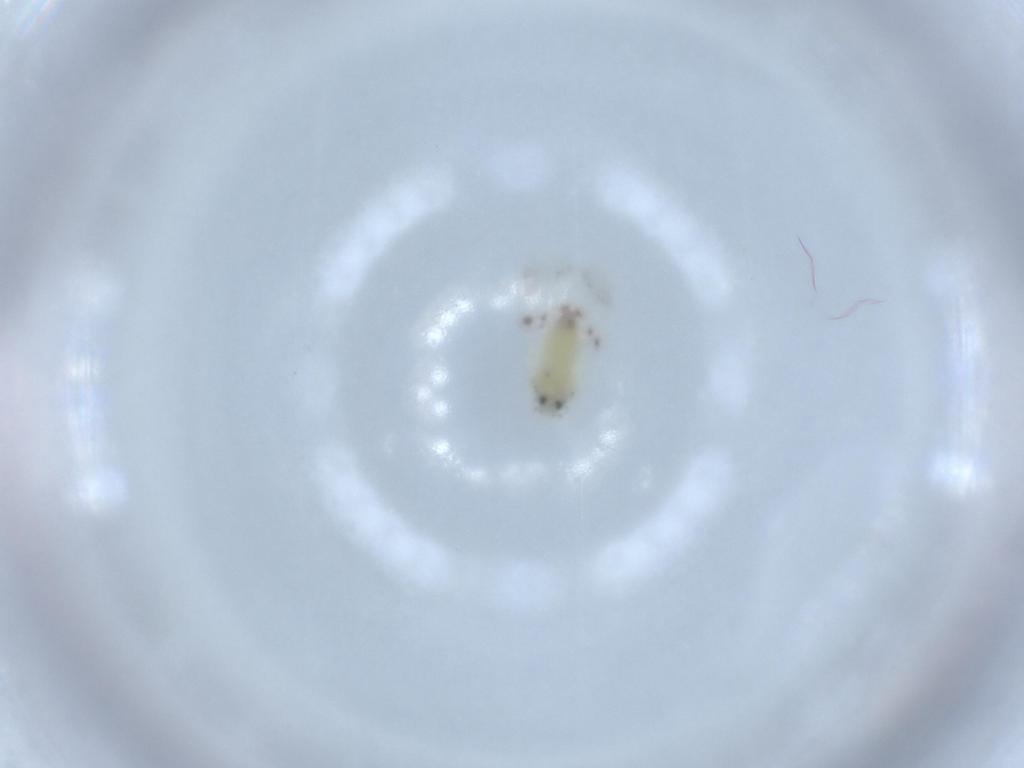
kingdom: Animalia
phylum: Arthropoda
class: Insecta
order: Hemiptera
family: Aleyrodidae
